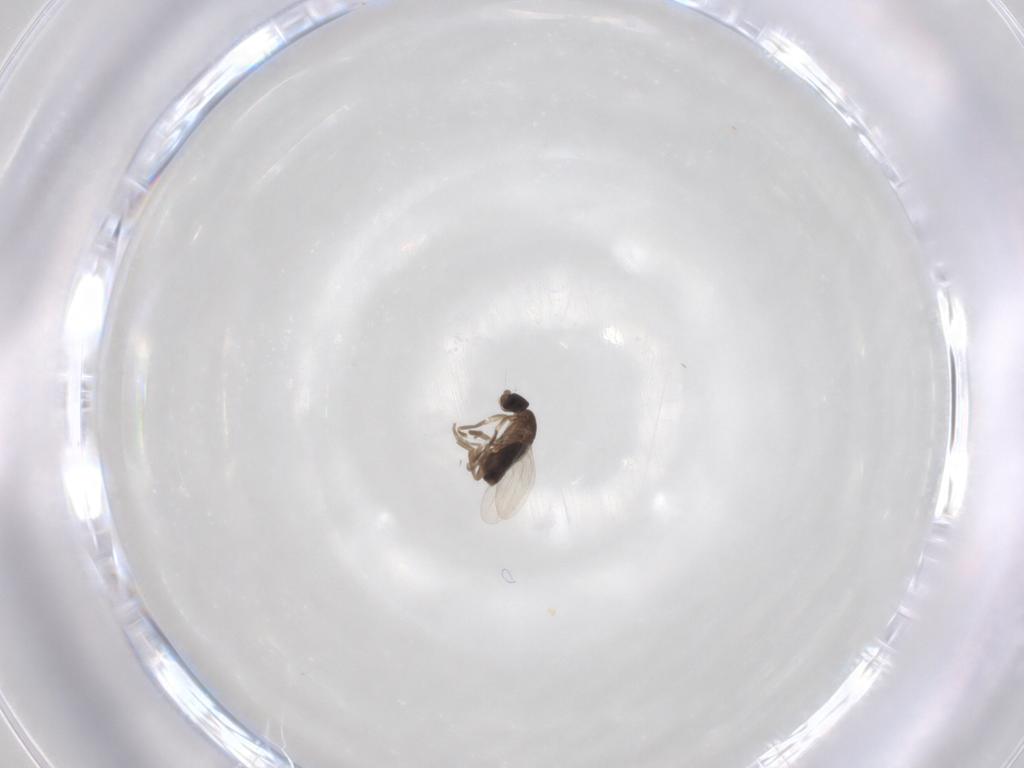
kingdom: Animalia
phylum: Arthropoda
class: Insecta
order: Diptera
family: Phoridae
